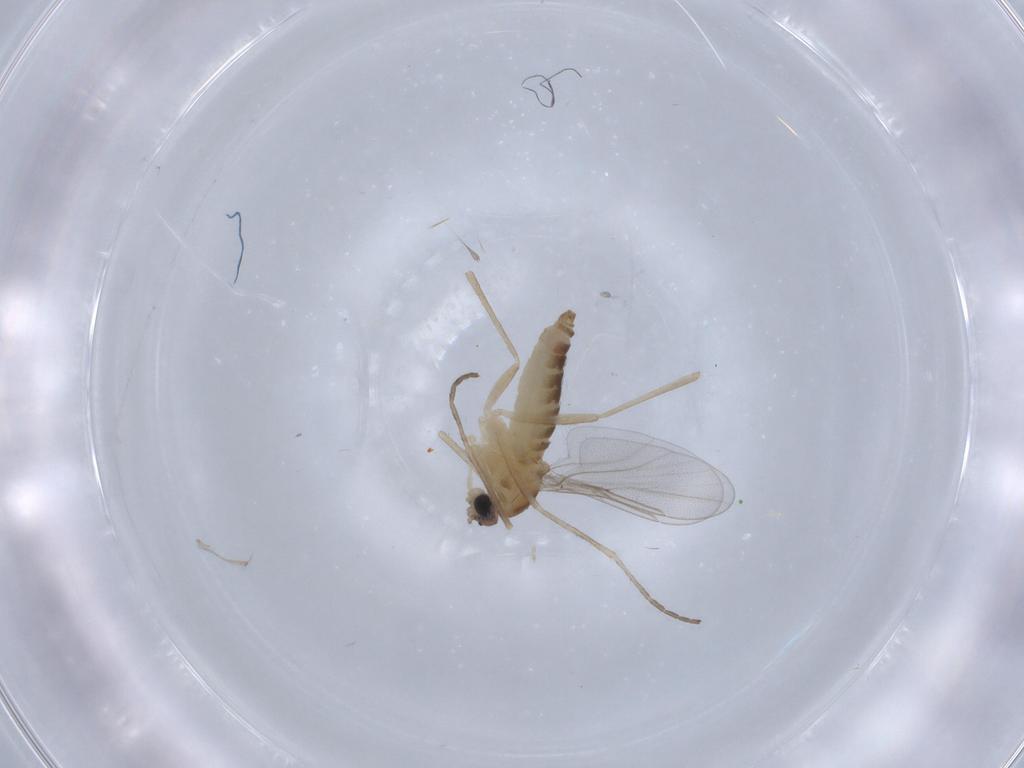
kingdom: Animalia
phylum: Arthropoda
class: Insecta
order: Diptera
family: Cecidomyiidae
